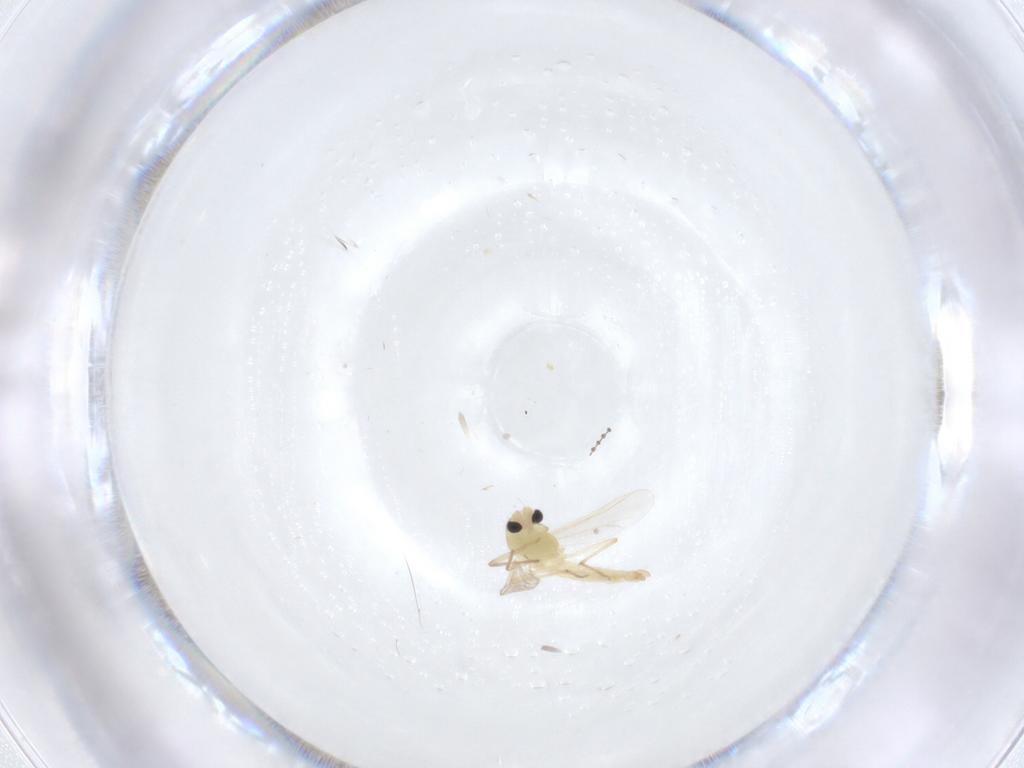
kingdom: Animalia
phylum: Arthropoda
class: Insecta
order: Diptera
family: Chironomidae
